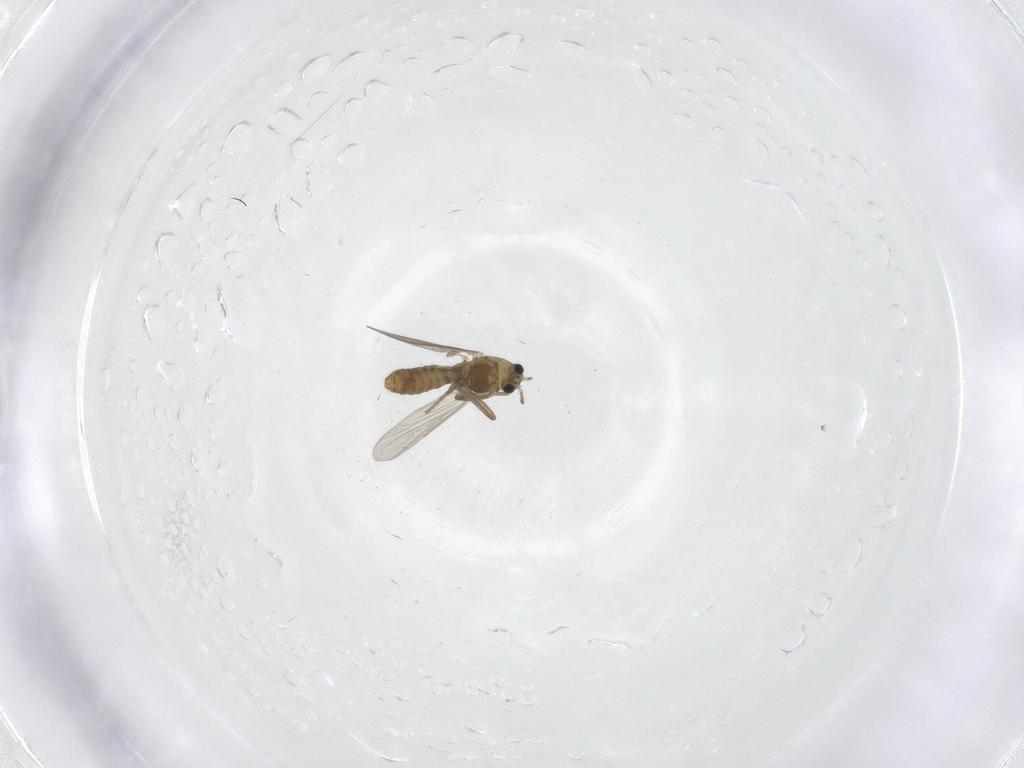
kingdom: Animalia
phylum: Arthropoda
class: Insecta
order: Diptera
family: Chironomidae
